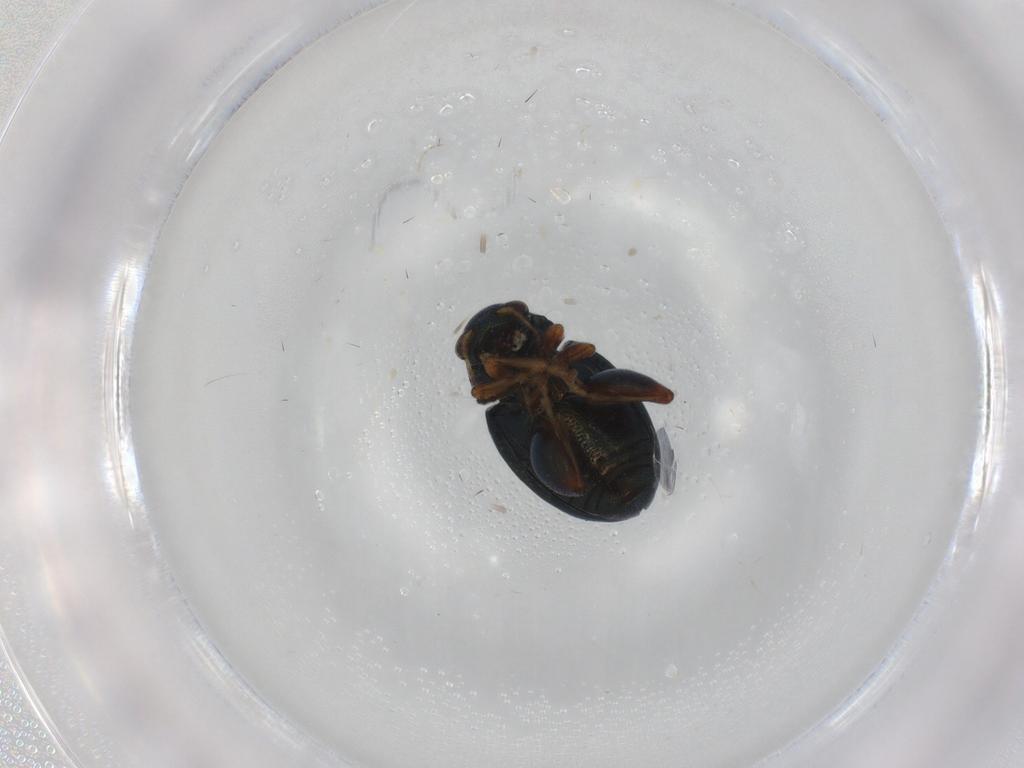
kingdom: Animalia
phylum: Arthropoda
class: Insecta
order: Coleoptera
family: Chrysomelidae
